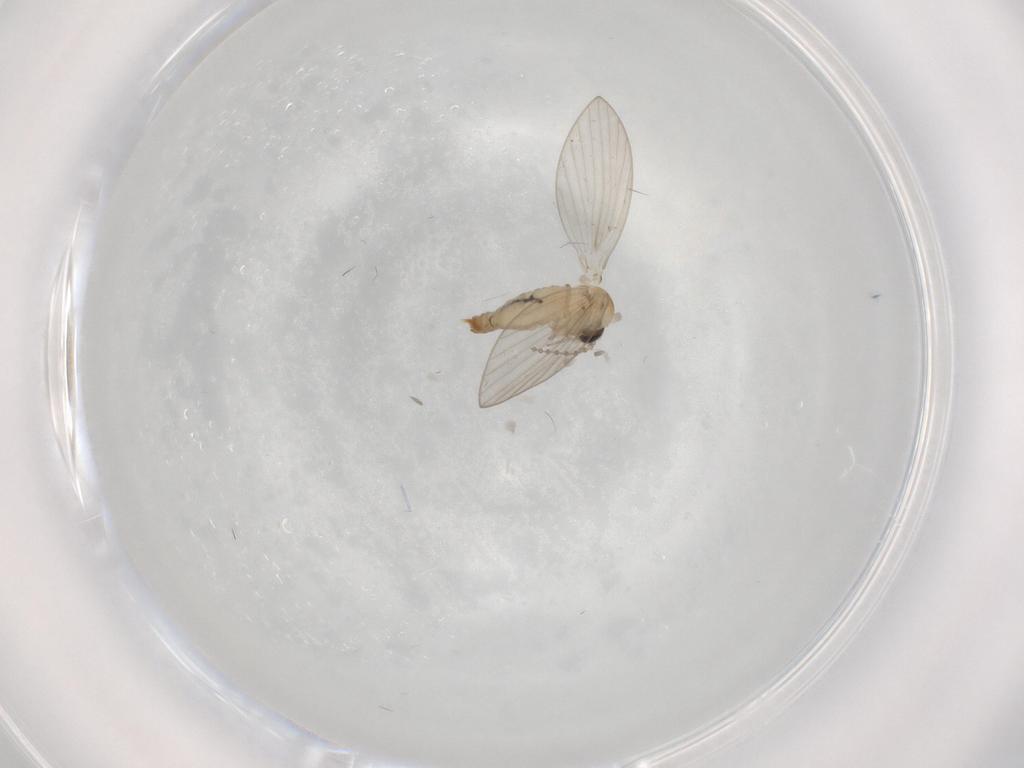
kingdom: Animalia
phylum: Arthropoda
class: Insecta
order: Diptera
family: Psychodidae
